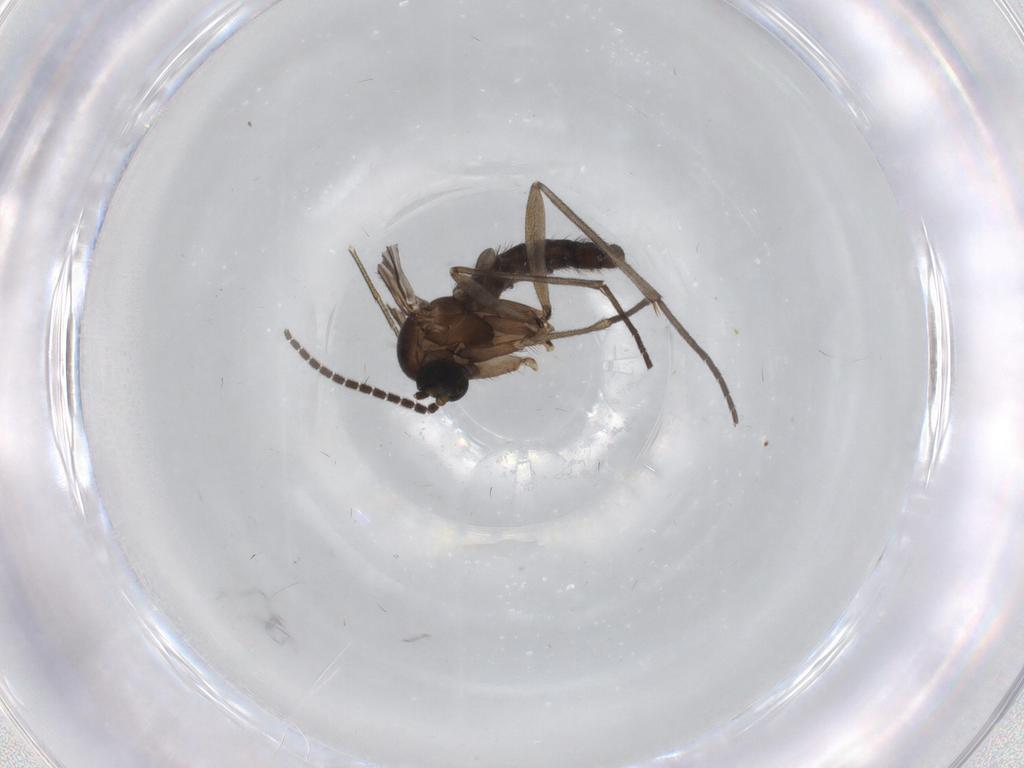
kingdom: Animalia
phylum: Arthropoda
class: Insecta
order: Diptera
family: Sciaridae
